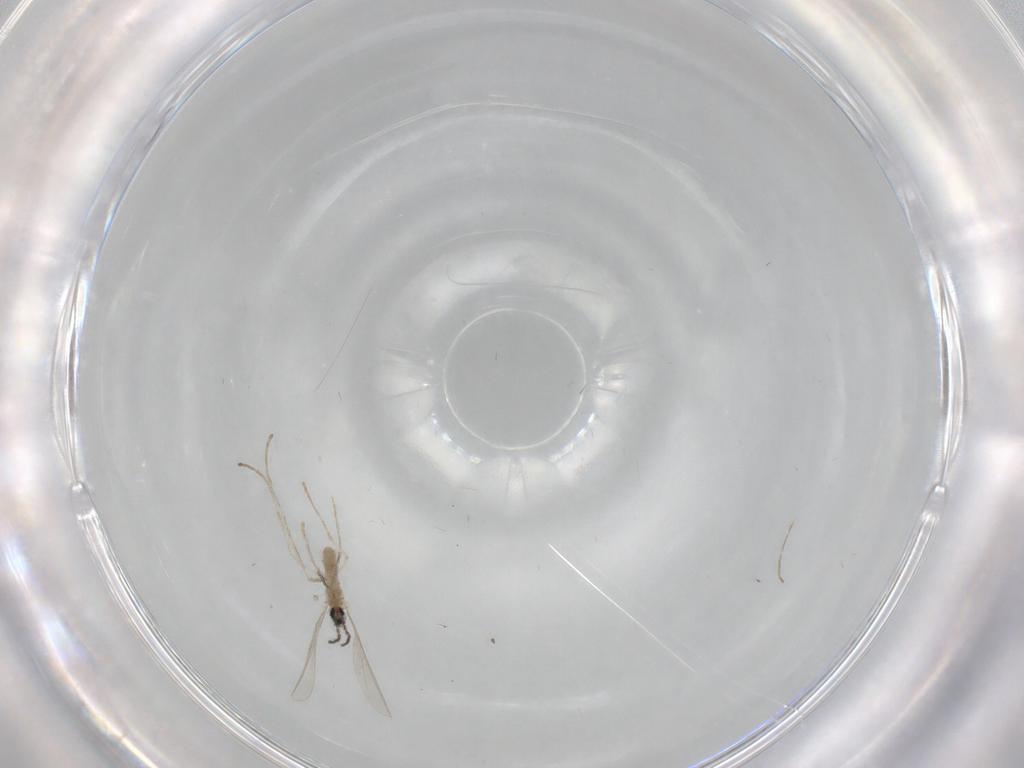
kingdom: Animalia
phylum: Arthropoda
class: Insecta
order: Diptera
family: Cecidomyiidae
